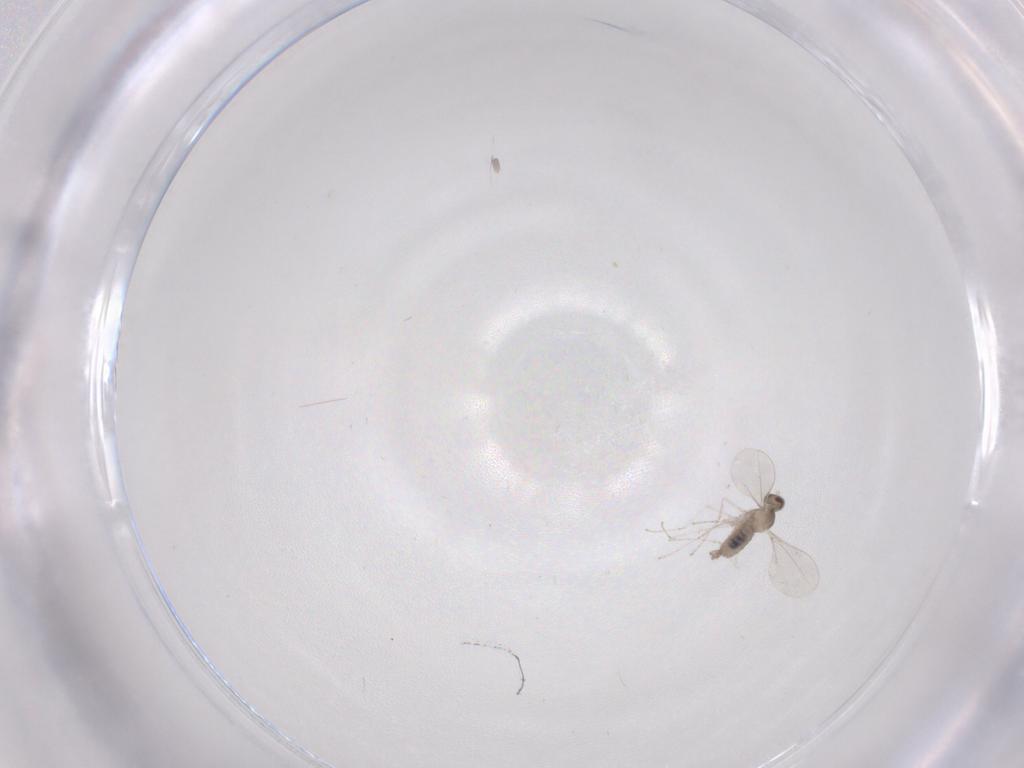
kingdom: Animalia
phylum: Arthropoda
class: Insecta
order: Diptera
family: Cecidomyiidae
